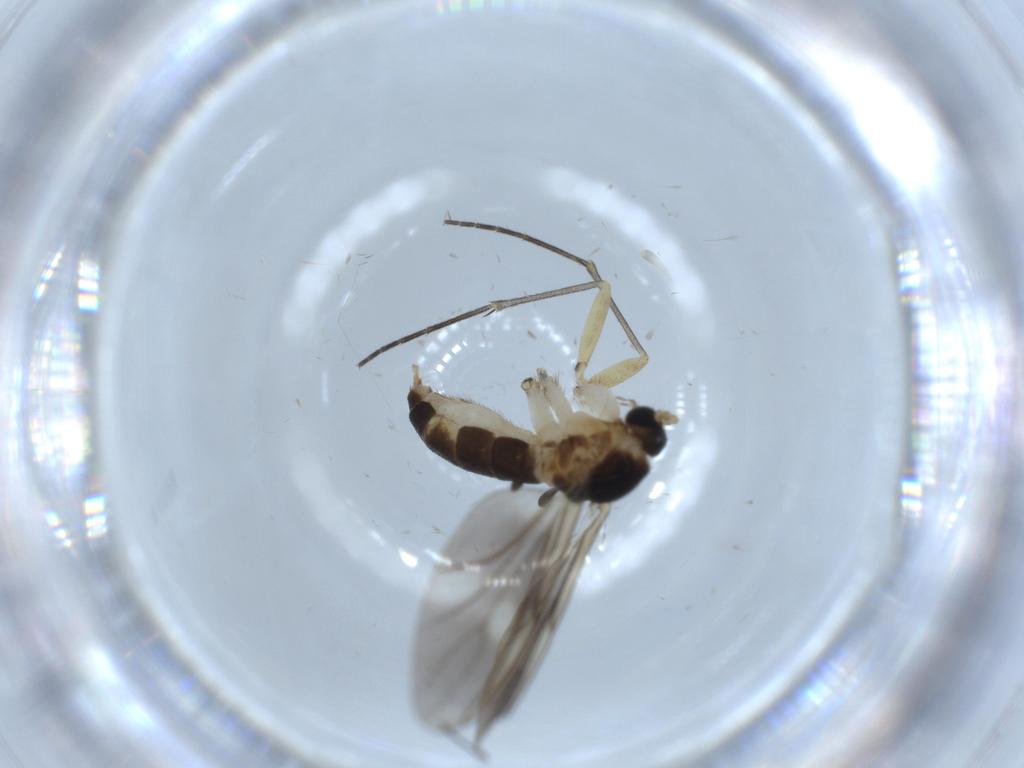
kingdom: Animalia
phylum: Arthropoda
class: Insecta
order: Diptera
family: Sciaridae
